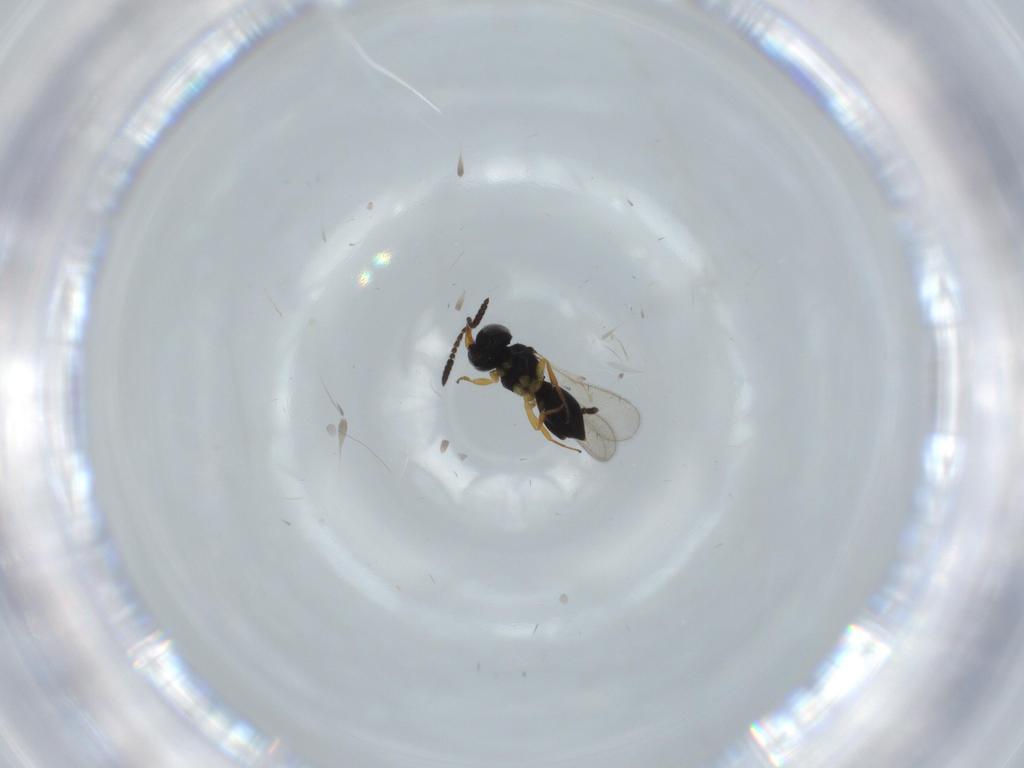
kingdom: Animalia
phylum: Arthropoda
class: Insecta
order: Hymenoptera
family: Scelionidae
